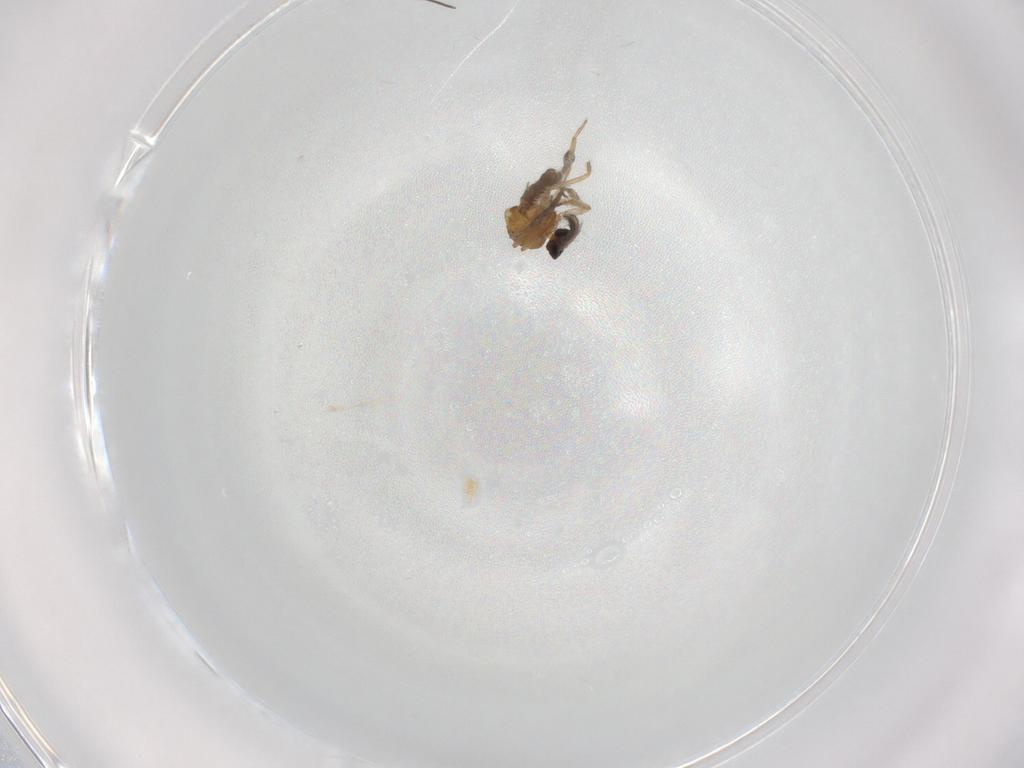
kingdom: Animalia
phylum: Arthropoda
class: Insecta
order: Diptera
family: Ceratopogonidae
